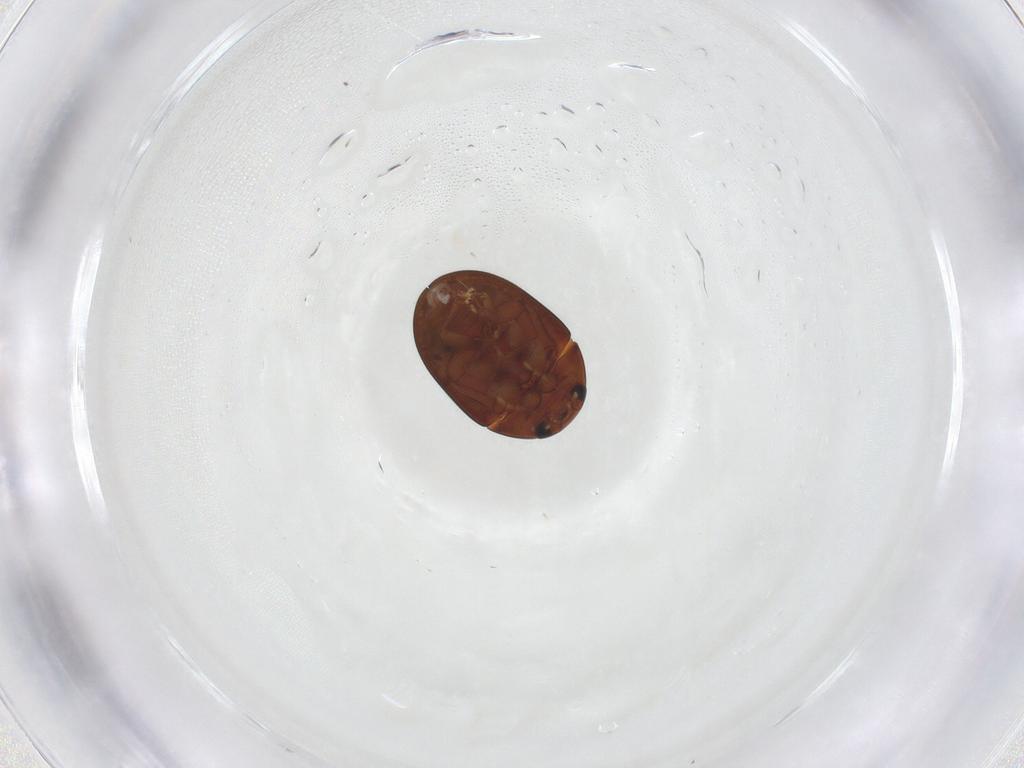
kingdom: Animalia
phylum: Arthropoda
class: Insecta
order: Coleoptera
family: Phalacridae
